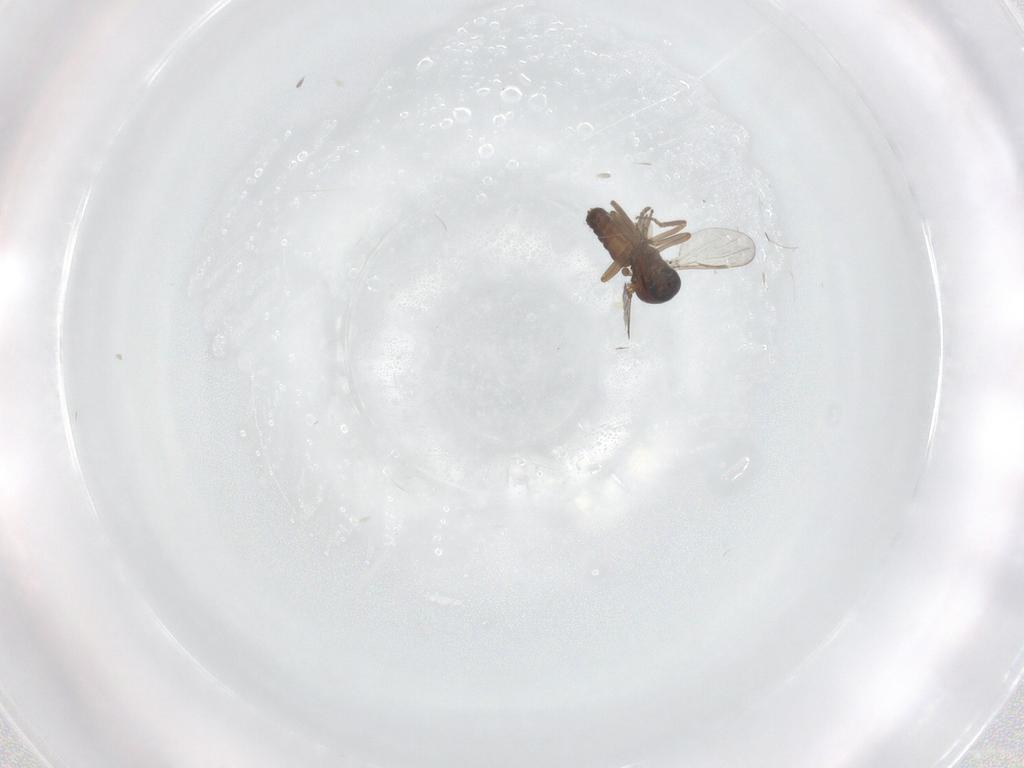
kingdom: Animalia
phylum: Arthropoda
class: Insecta
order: Diptera
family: Ceratopogonidae
